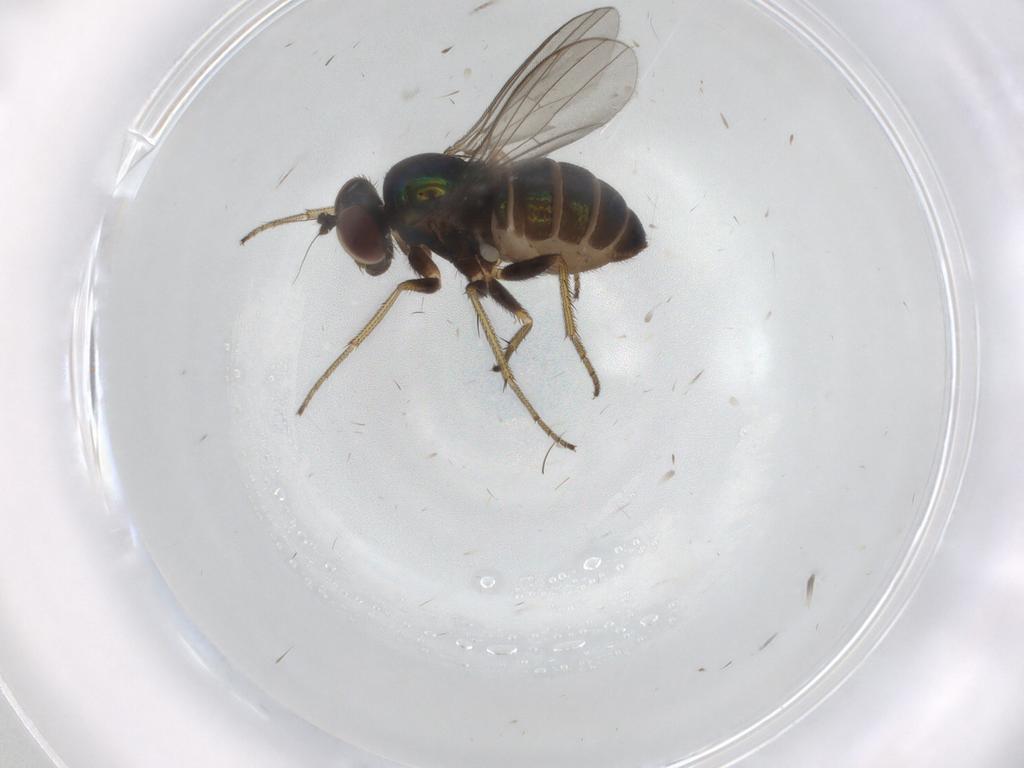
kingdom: Animalia
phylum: Arthropoda
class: Insecta
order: Diptera
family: Phoridae
